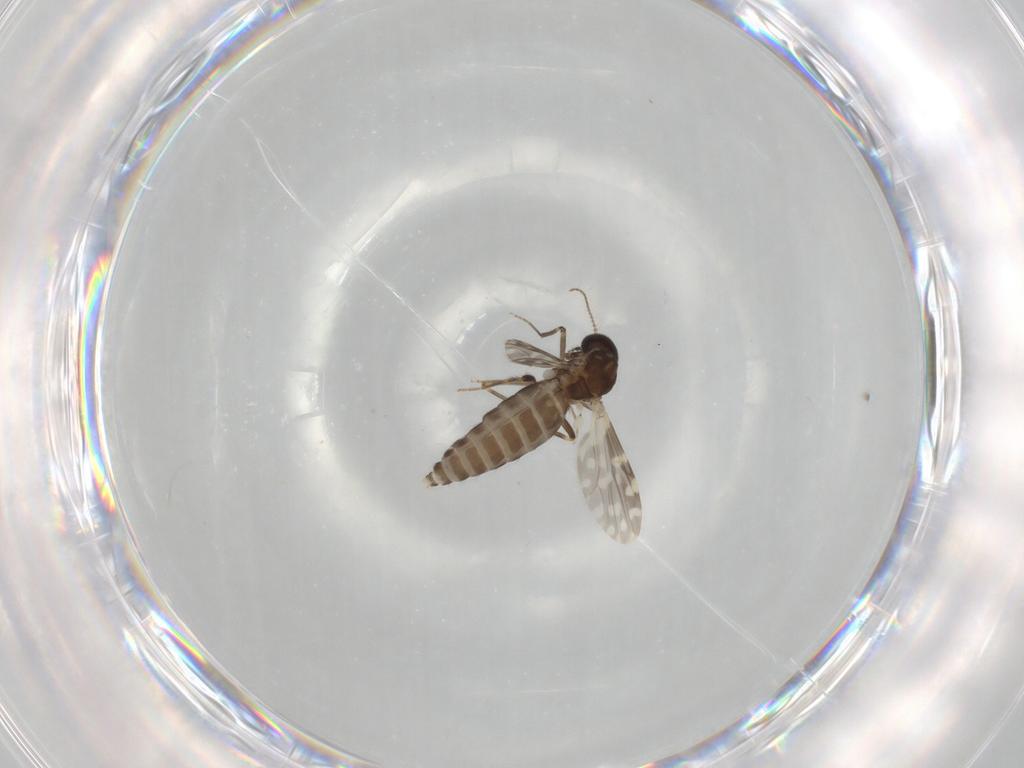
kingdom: Animalia
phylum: Arthropoda
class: Insecta
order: Diptera
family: Ceratopogonidae
